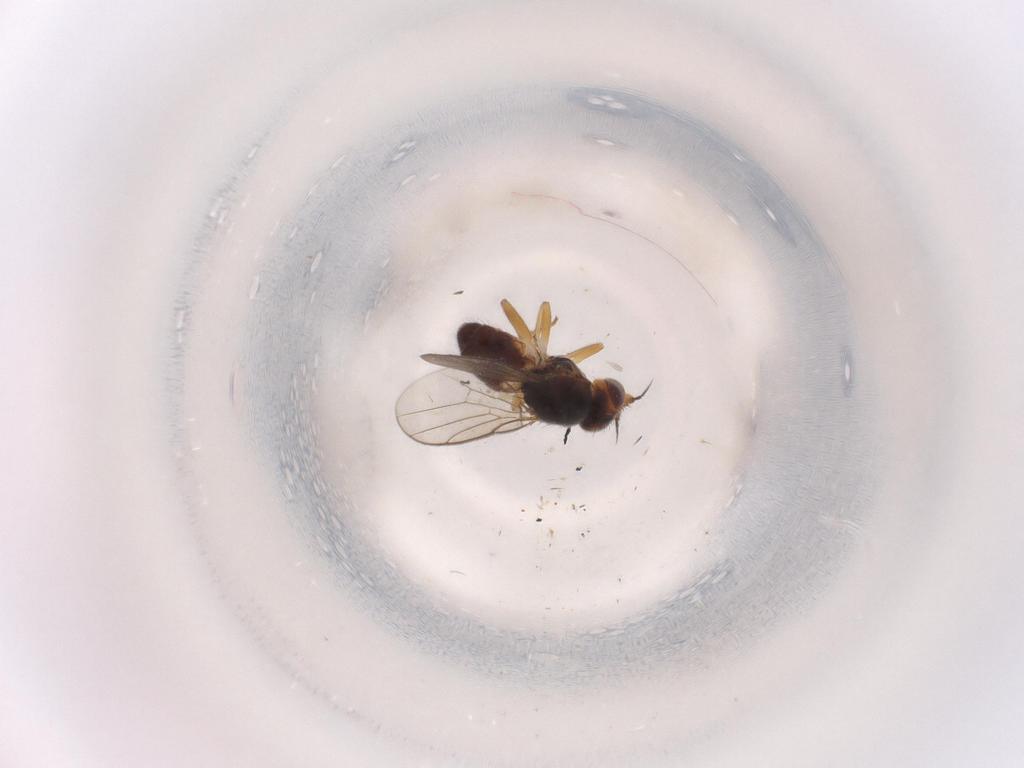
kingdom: Animalia
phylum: Arthropoda
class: Insecta
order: Diptera
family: Chloropidae
